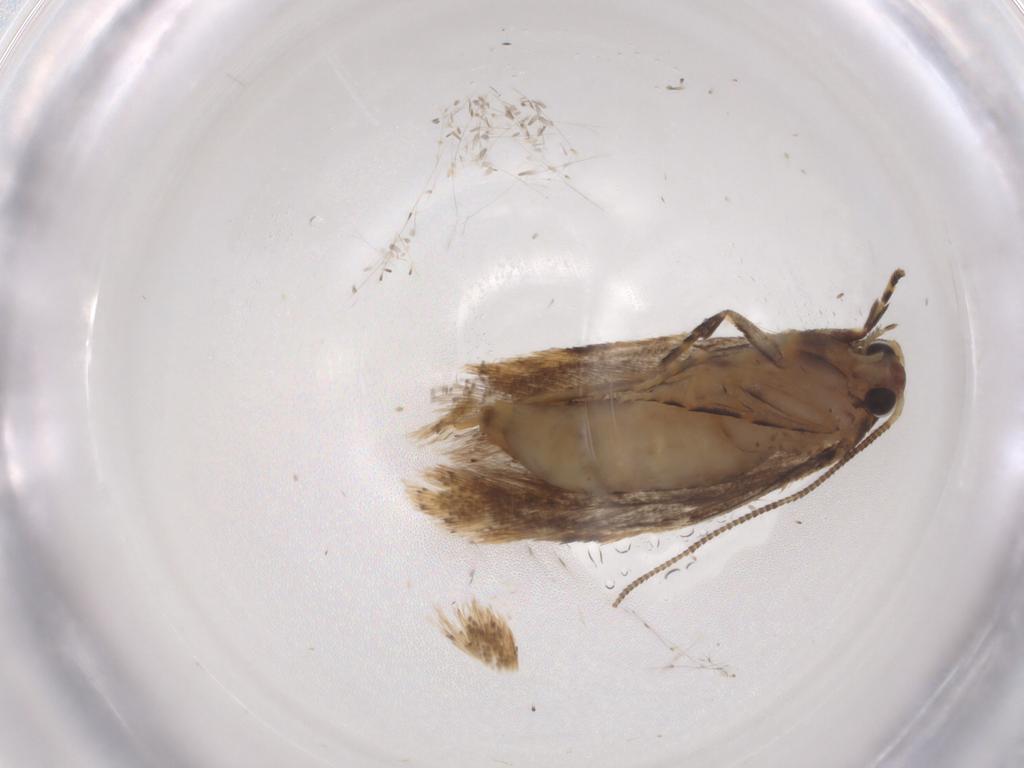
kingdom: Animalia
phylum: Arthropoda
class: Insecta
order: Lepidoptera
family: Tineidae
